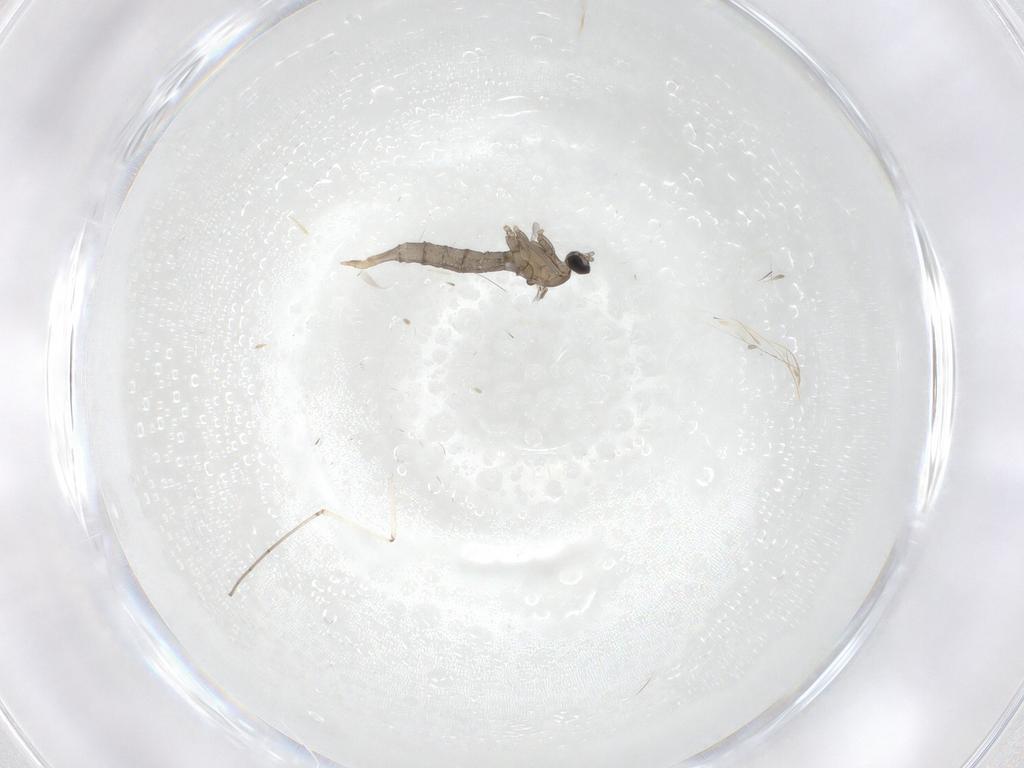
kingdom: Animalia
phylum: Arthropoda
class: Insecta
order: Diptera
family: Cecidomyiidae
